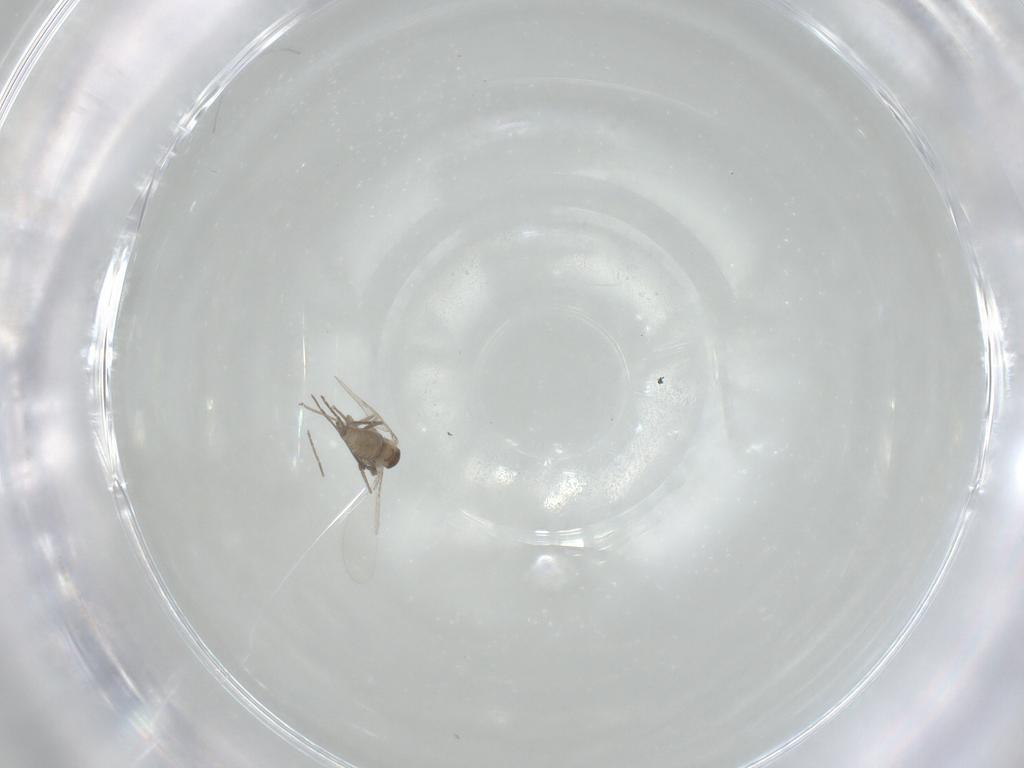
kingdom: Animalia
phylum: Arthropoda
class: Insecta
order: Diptera
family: Cecidomyiidae
